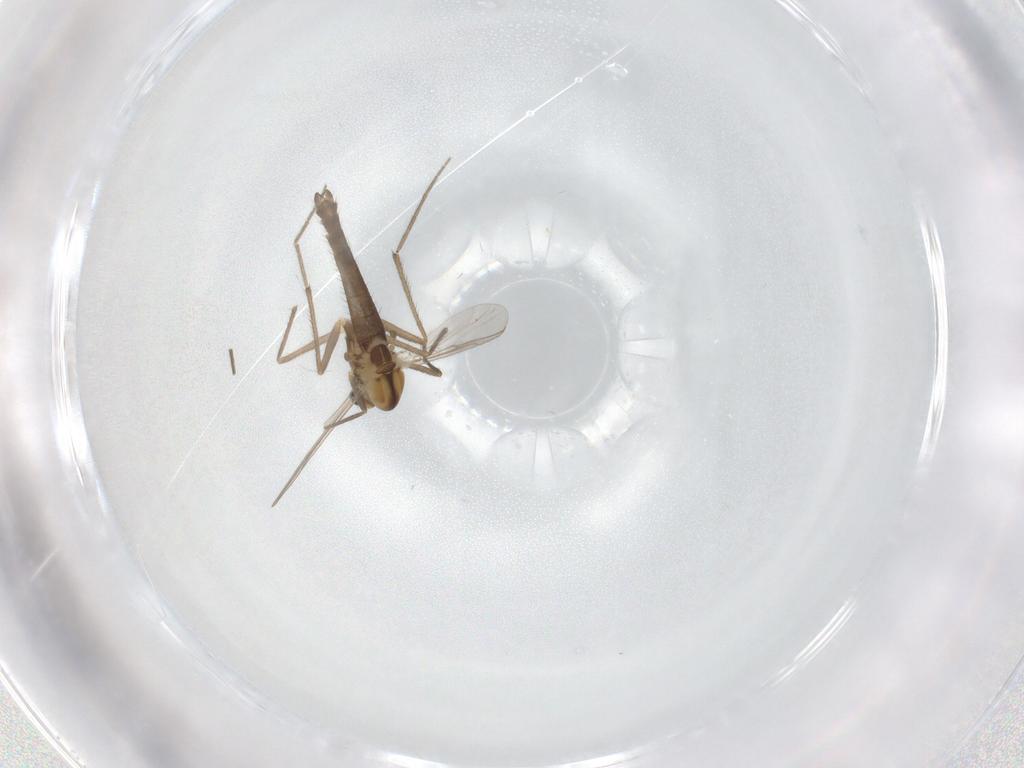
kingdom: Animalia
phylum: Arthropoda
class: Insecta
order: Diptera
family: Chironomidae
